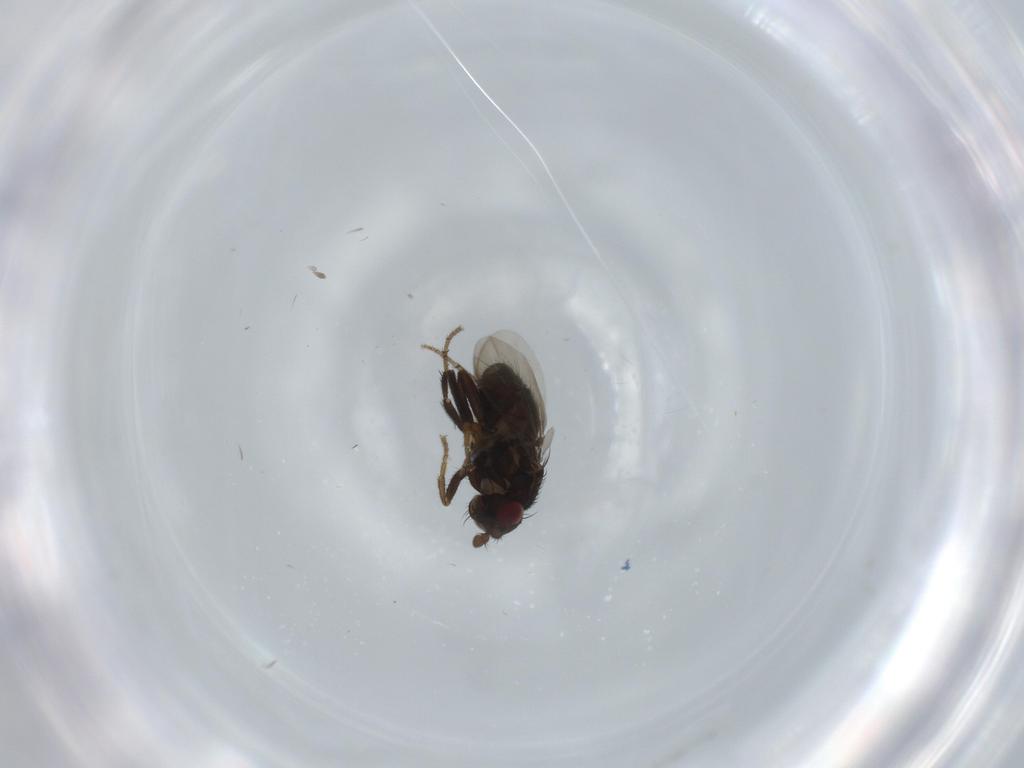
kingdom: Animalia
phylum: Arthropoda
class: Insecta
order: Diptera
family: Sphaeroceridae
